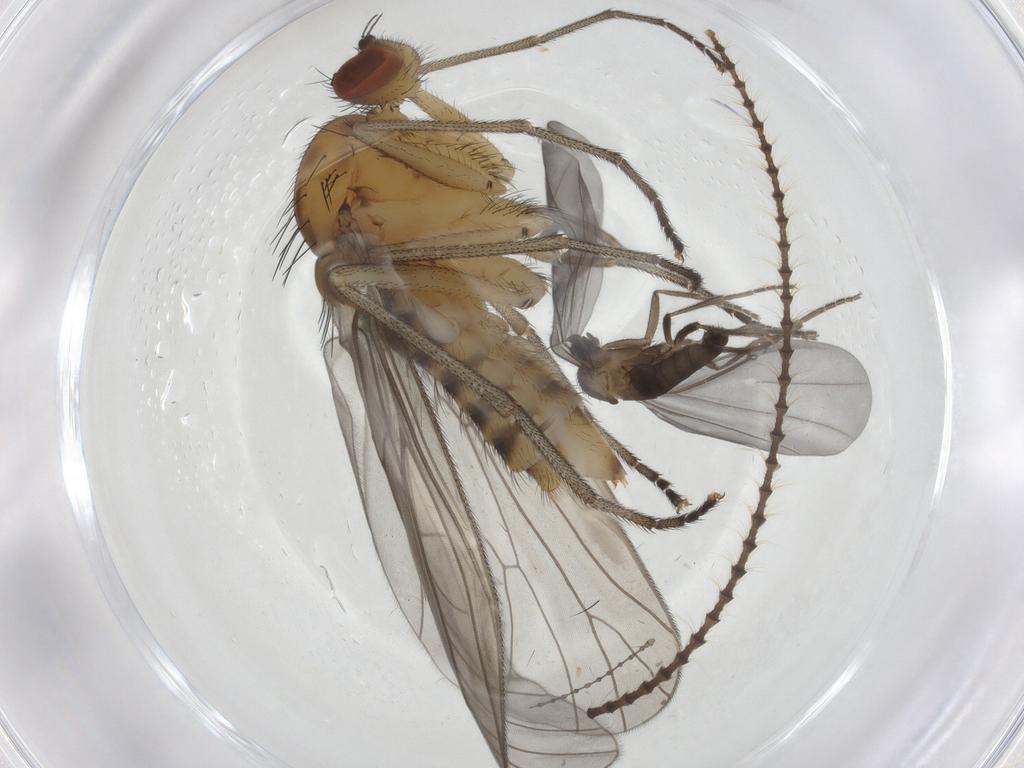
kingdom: Animalia
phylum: Arthropoda
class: Insecta
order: Diptera
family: Brachystomatidae
